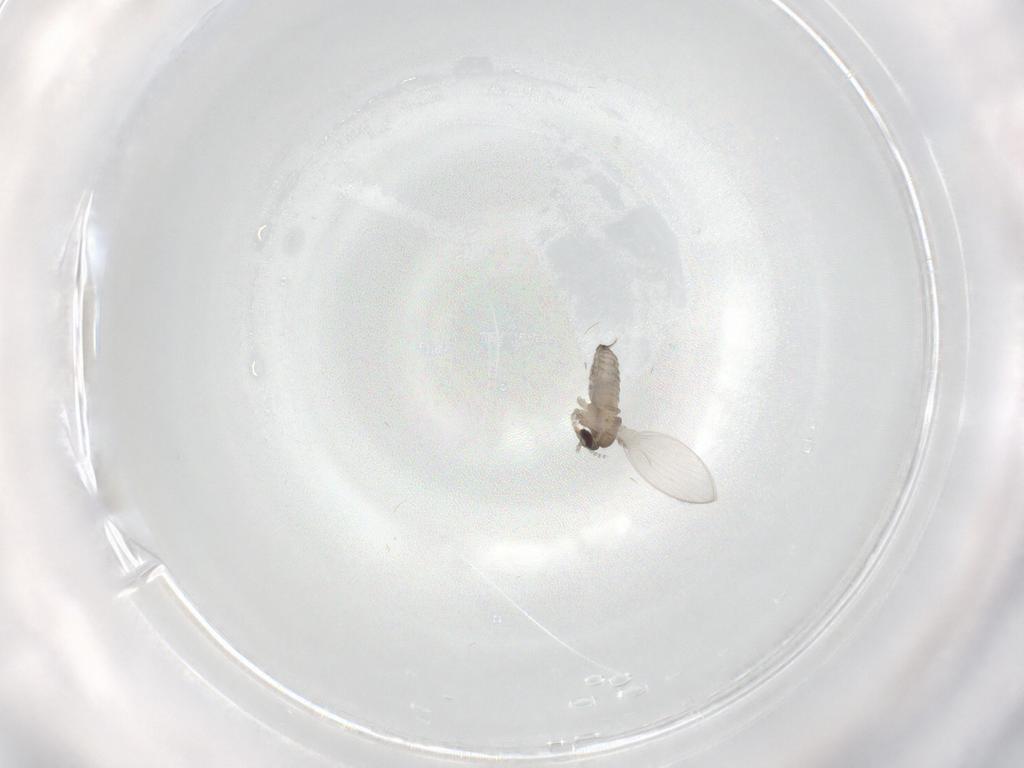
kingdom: Animalia
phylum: Arthropoda
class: Insecta
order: Diptera
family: Psychodidae
